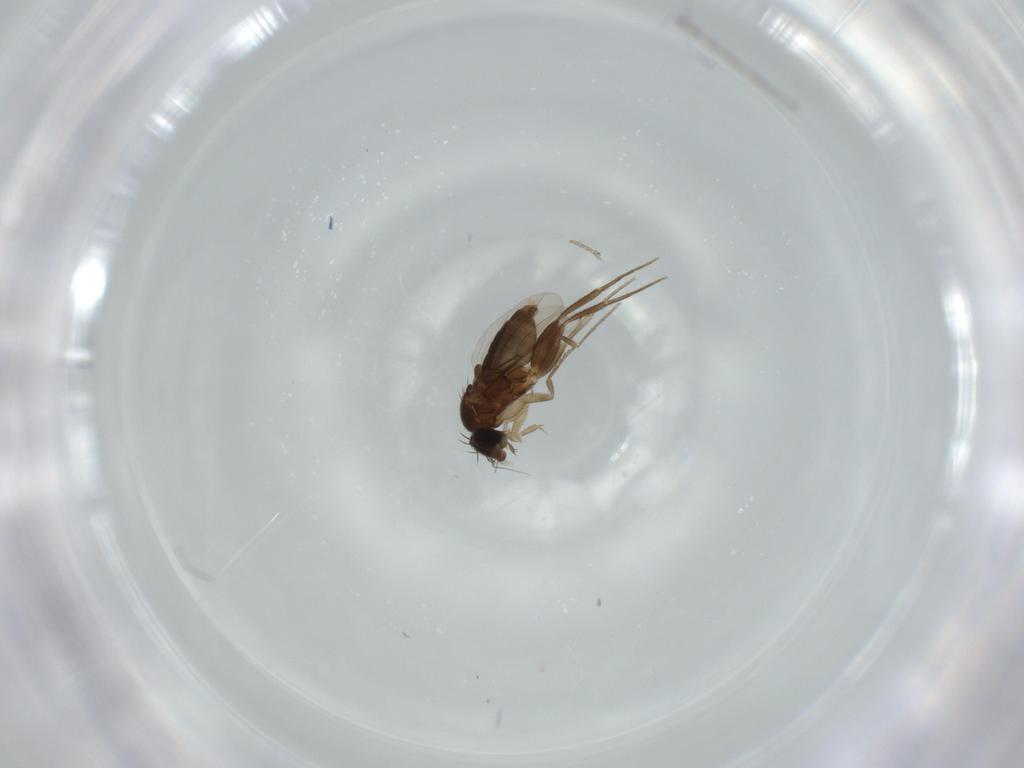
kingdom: Animalia
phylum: Arthropoda
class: Insecta
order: Diptera
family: Phoridae
